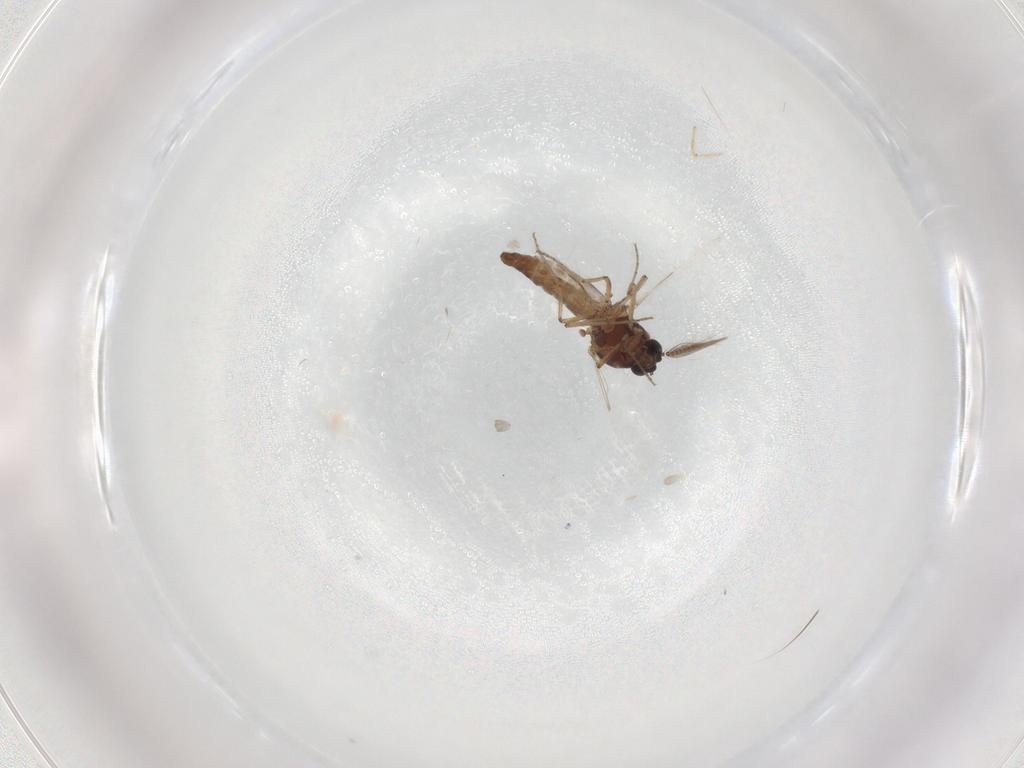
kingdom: Animalia
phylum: Arthropoda
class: Insecta
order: Diptera
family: Ceratopogonidae
